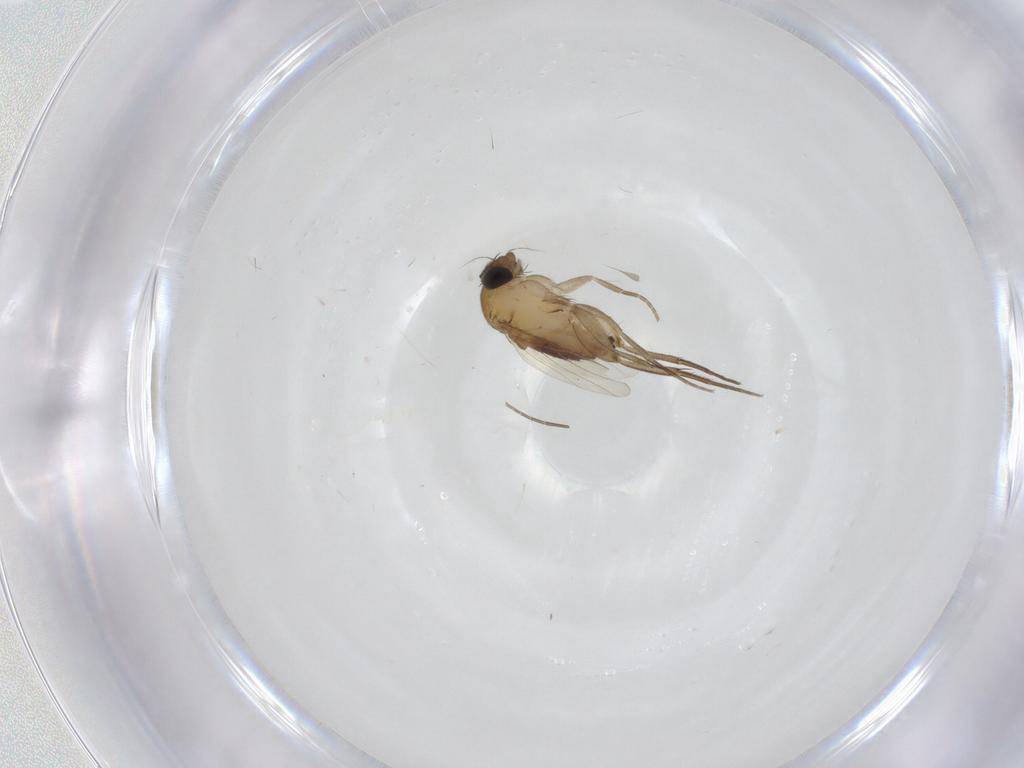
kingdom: Animalia
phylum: Arthropoda
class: Insecta
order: Diptera
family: Phoridae
